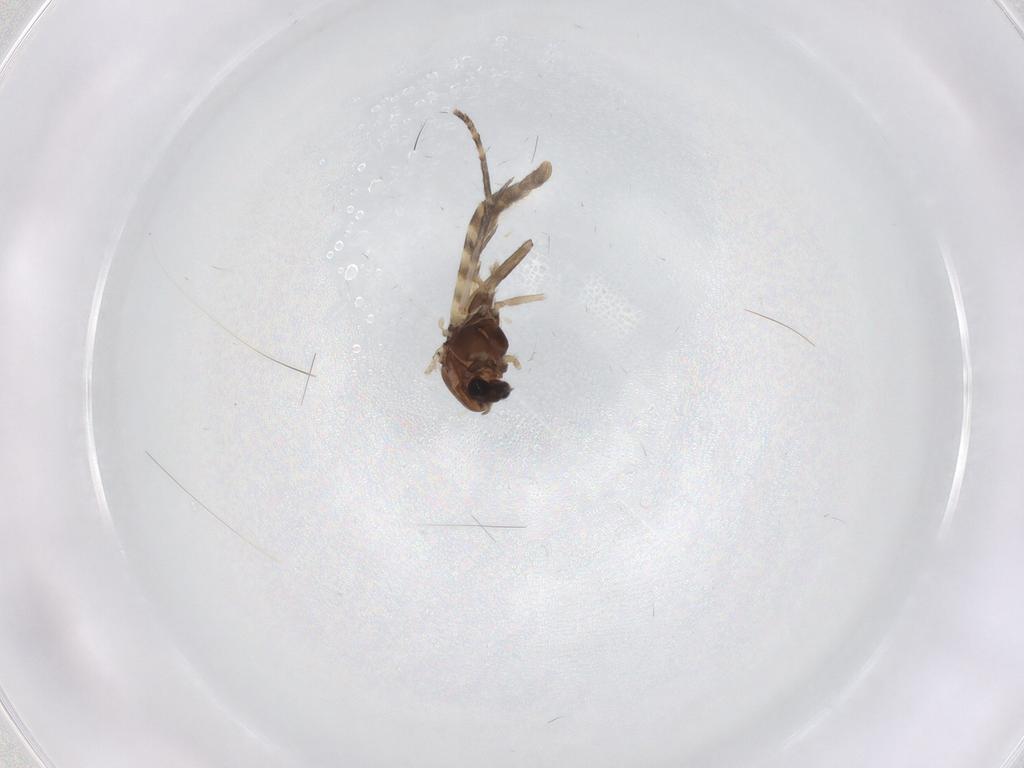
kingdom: Animalia
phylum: Arthropoda
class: Insecta
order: Diptera
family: Chironomidae
